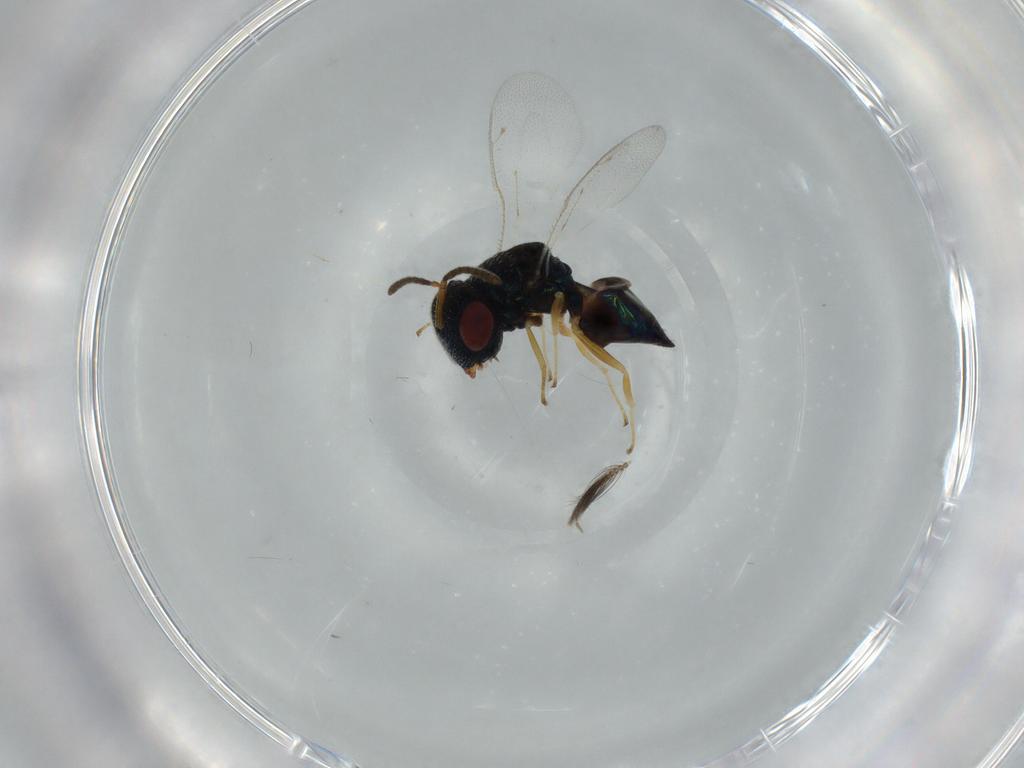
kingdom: Animalia
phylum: Arthropoda
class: Insecta
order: Hymenoptera
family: Eupelmidae
